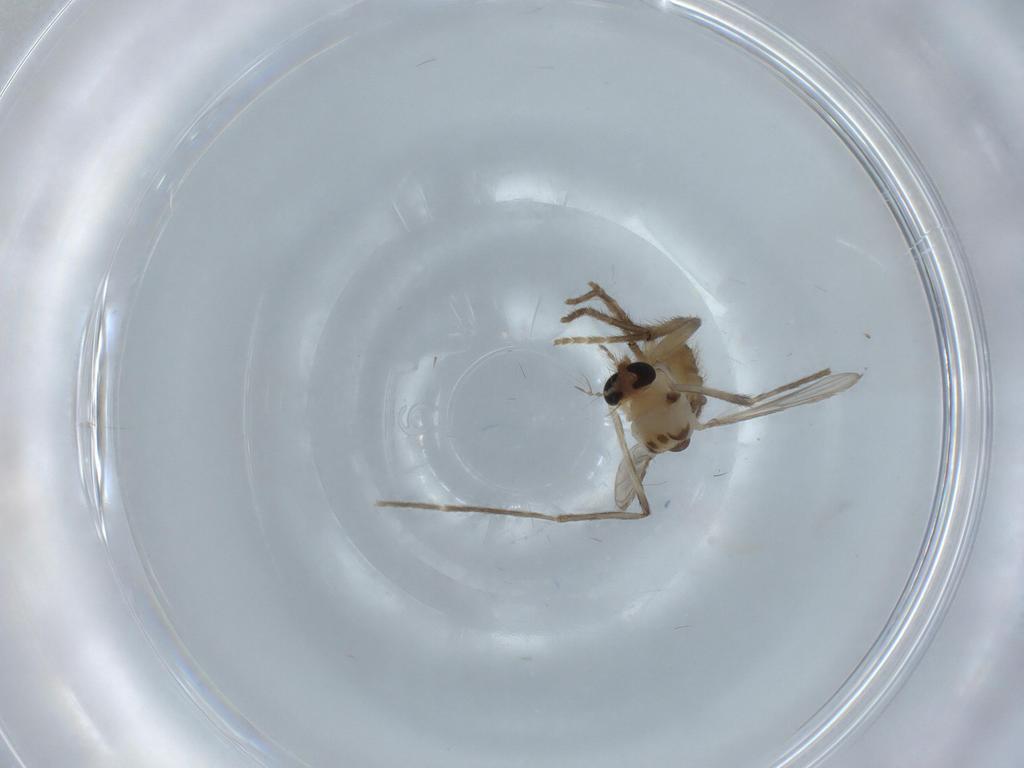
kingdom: Animalia
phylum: Arthropoda
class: Insecta
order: Diptera
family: Chironomidae
